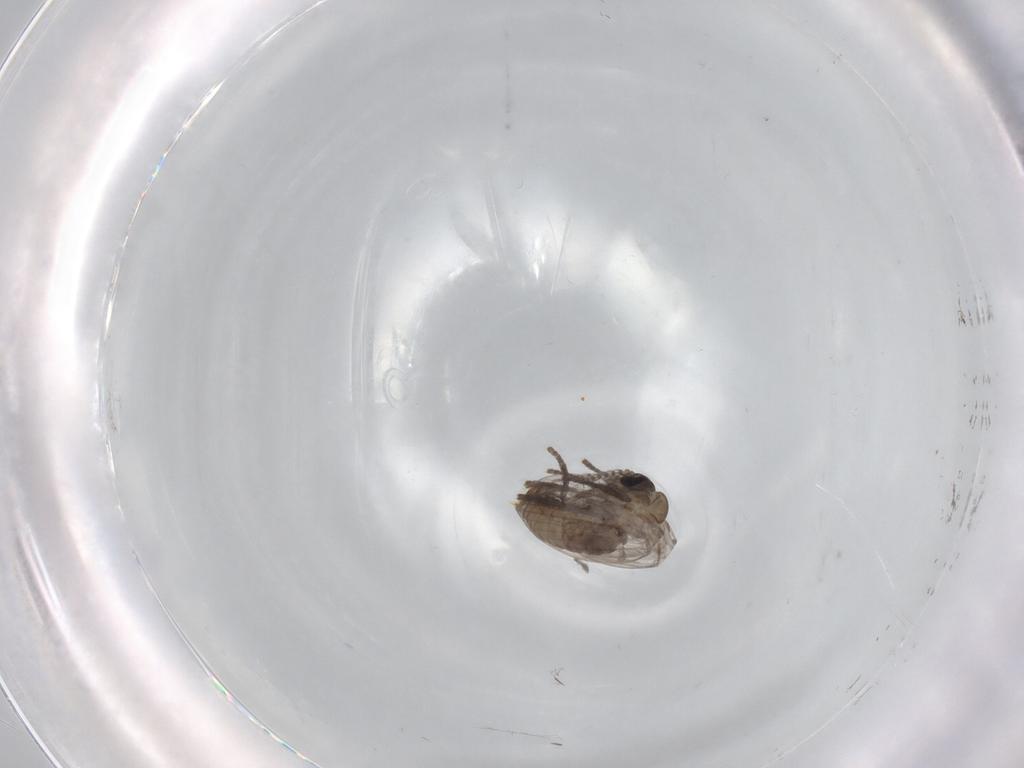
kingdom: Animalia
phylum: Arthropoda
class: Insecta
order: Diptera
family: Psychodidae
